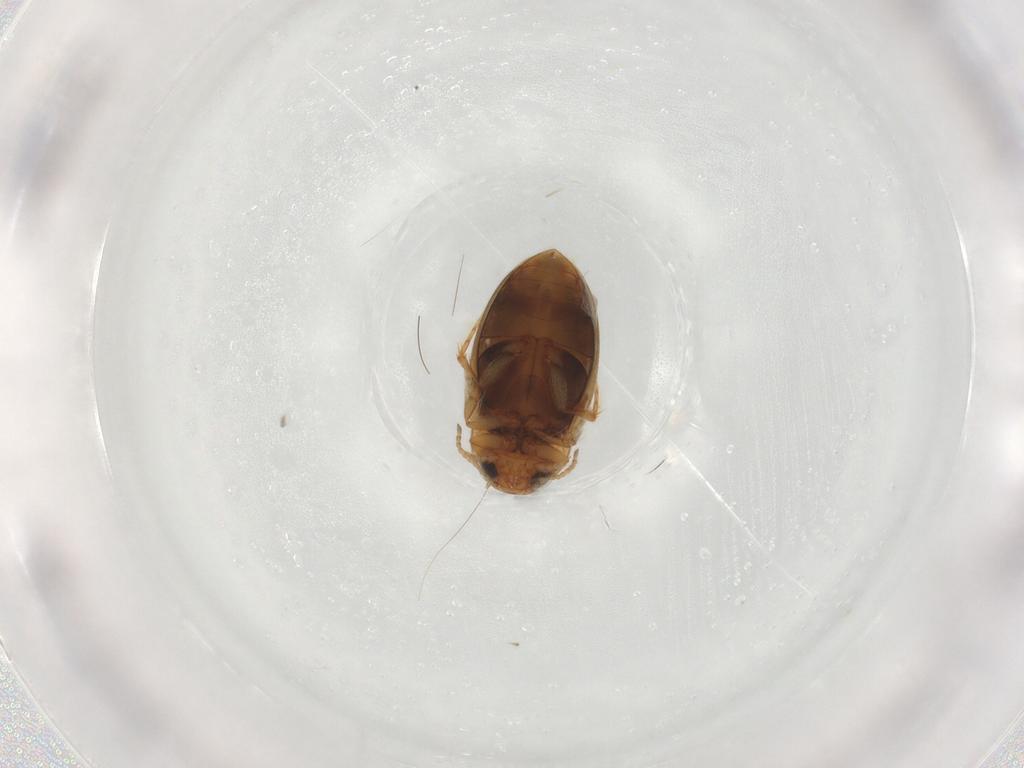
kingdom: Animalia
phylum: Arthropoda
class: Insecta
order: Coleoptera
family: Dytiscidae
